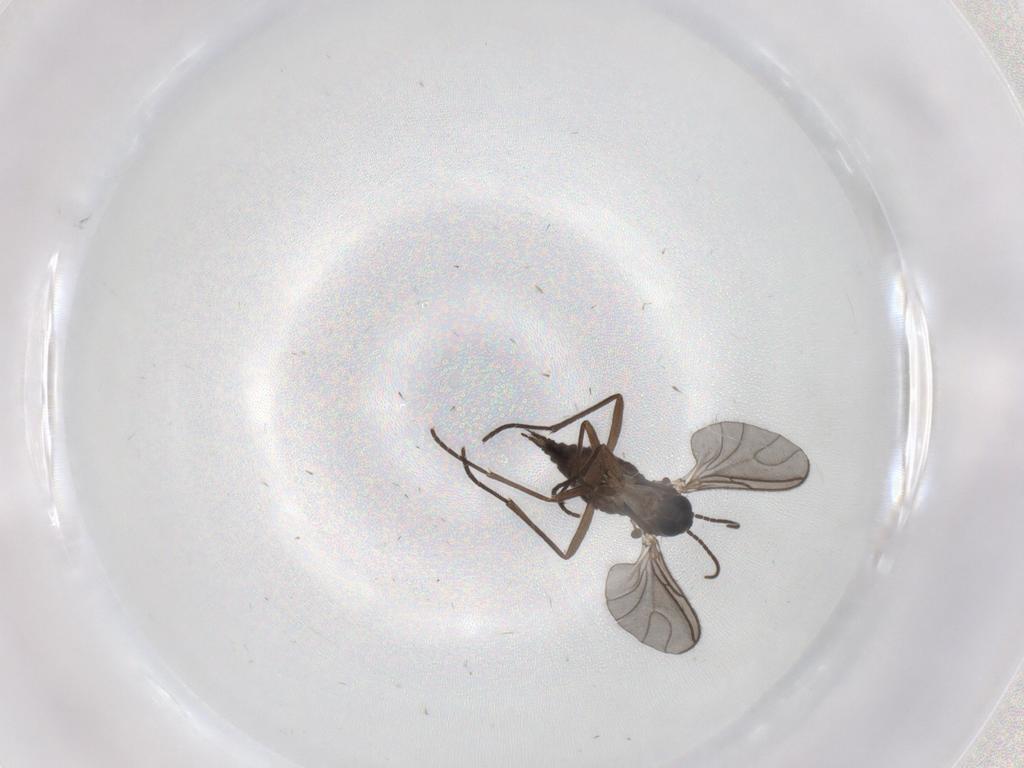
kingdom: Animalia
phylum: Arthropoda
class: Insecta
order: Diptera
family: Sciaridae
